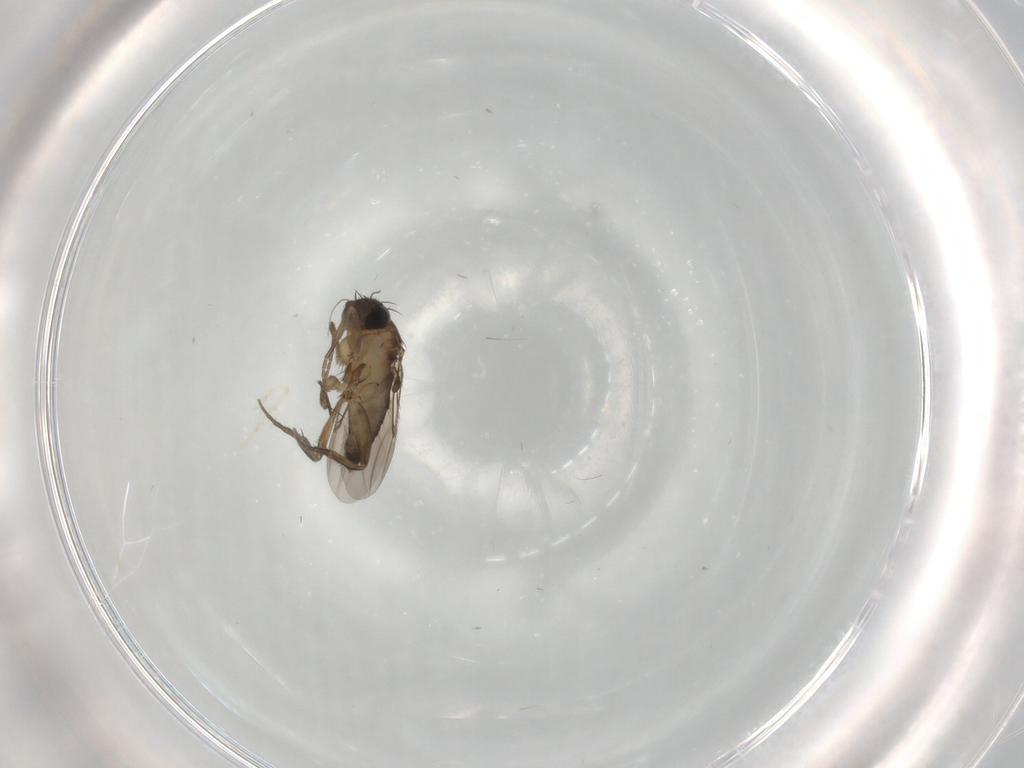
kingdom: Animalia
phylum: Arthropoda
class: Insecta
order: Diptera
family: Phoridae
